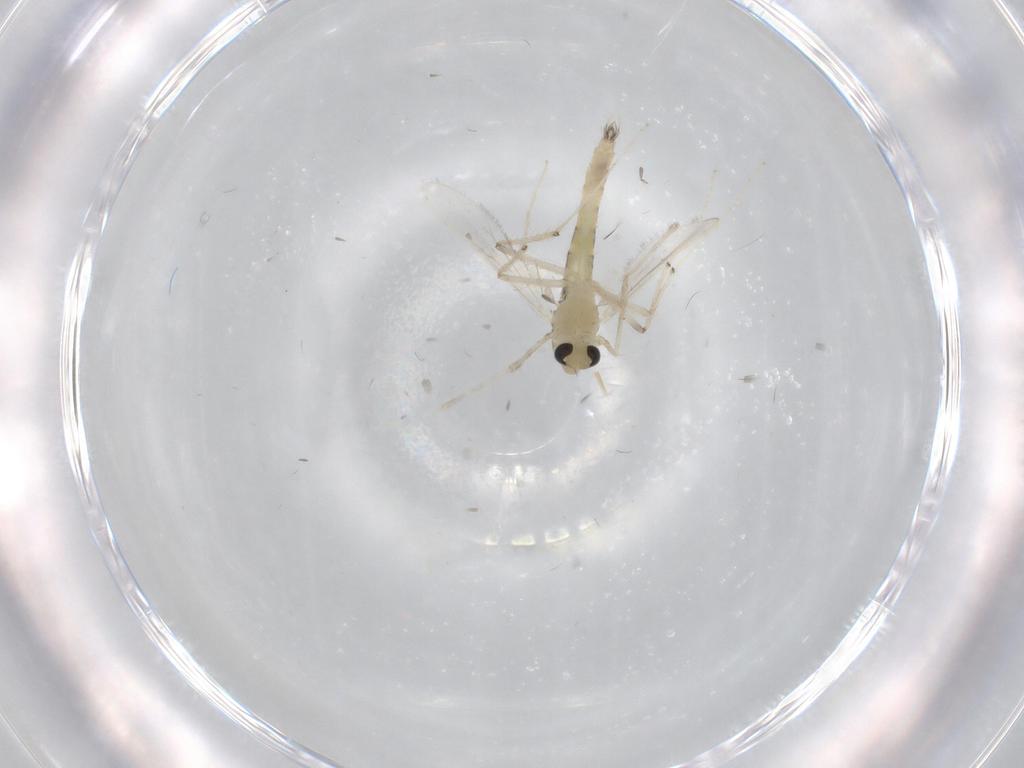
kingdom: Animalia
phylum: Arthropoda
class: Insecta
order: Diptera
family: Chironomidae
